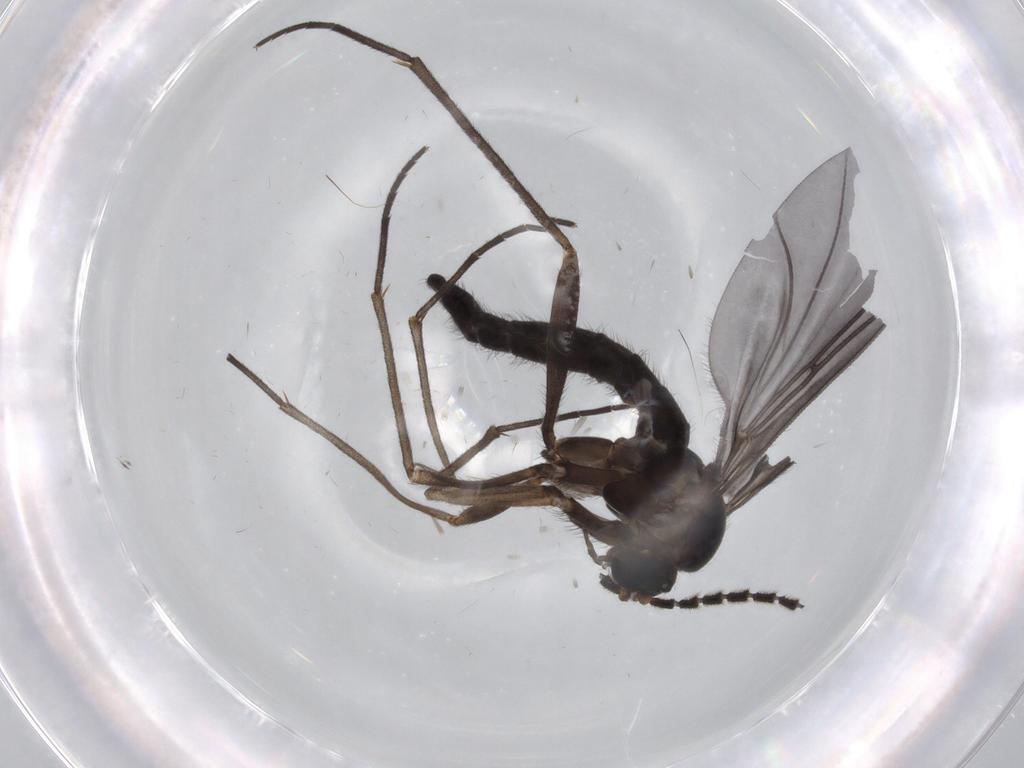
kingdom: Animalia
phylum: Arthropoda
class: Insecta
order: Diptera
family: Sciaridae
